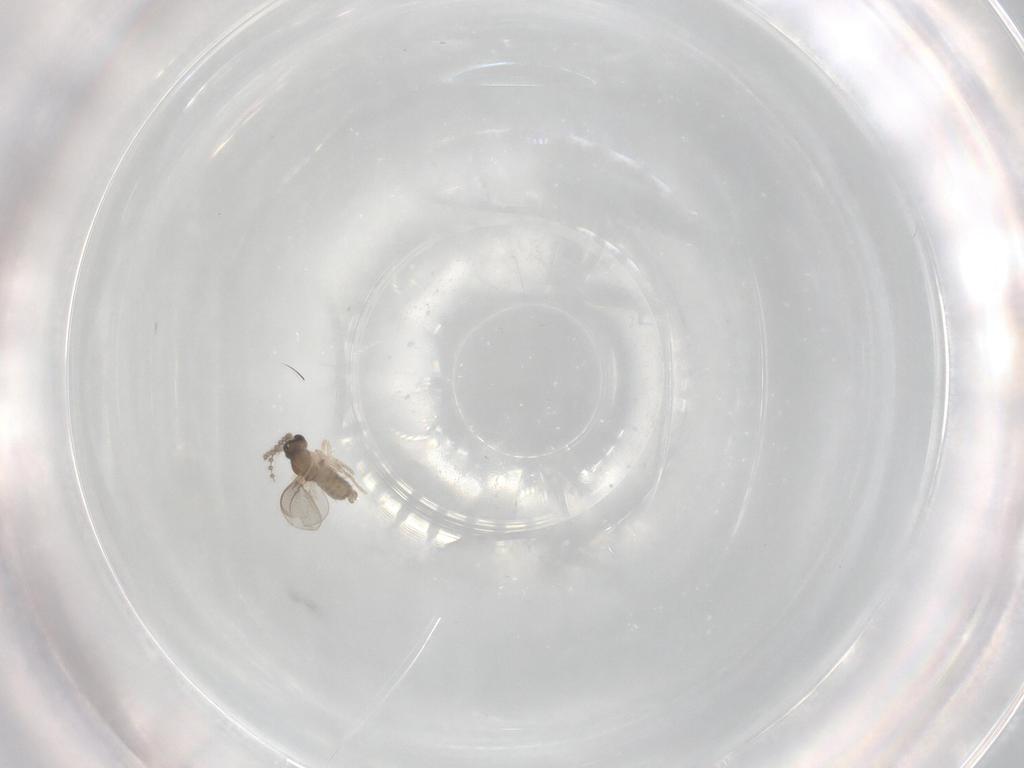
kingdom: Animalia
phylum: Arthropoda
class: Insecta
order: Diptera
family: Cecidomyiidae
